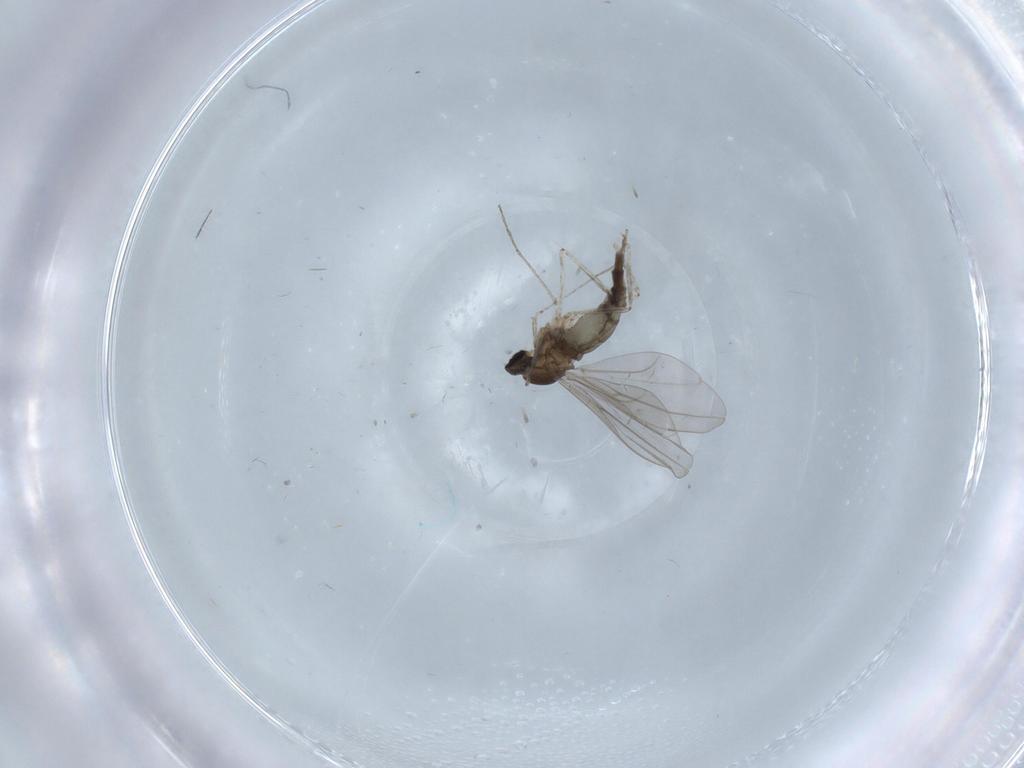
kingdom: Animalia
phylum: Arthropoda
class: Insecta
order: Diptera
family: Cecidomyiidae
